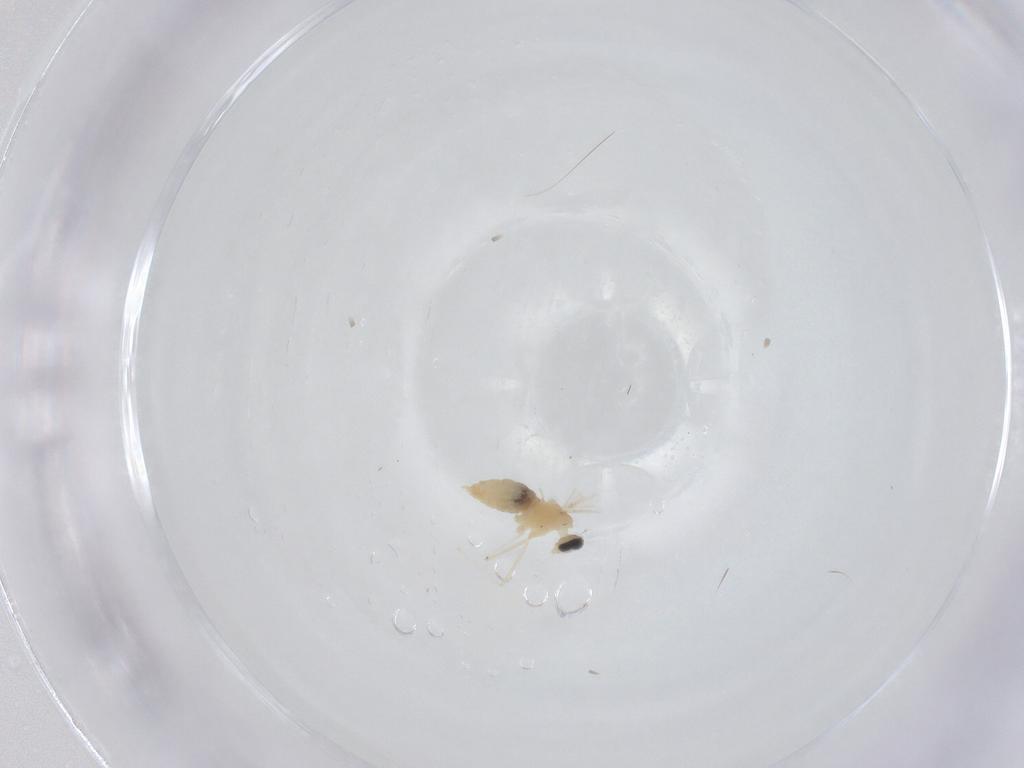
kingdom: Animalia
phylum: Arthropoda
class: Insecta
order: Diptera
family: Cecidomyiidae
